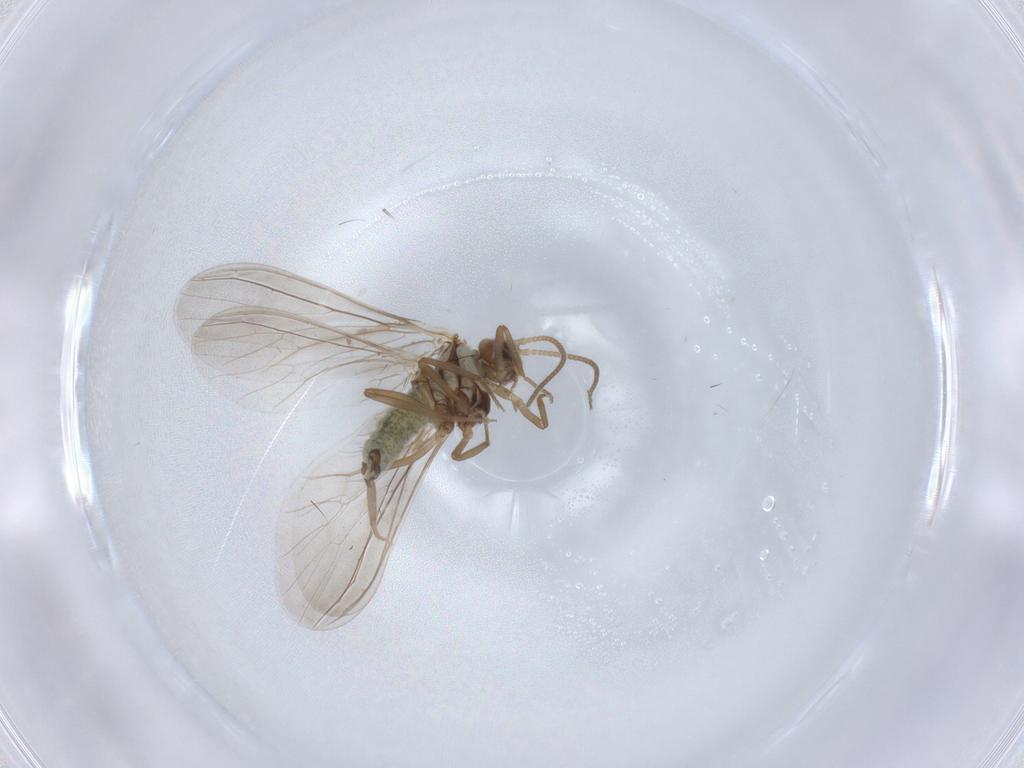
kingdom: Animalia
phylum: Arthropoda
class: Insecta
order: Neuroptera
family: Coniopterygidae
